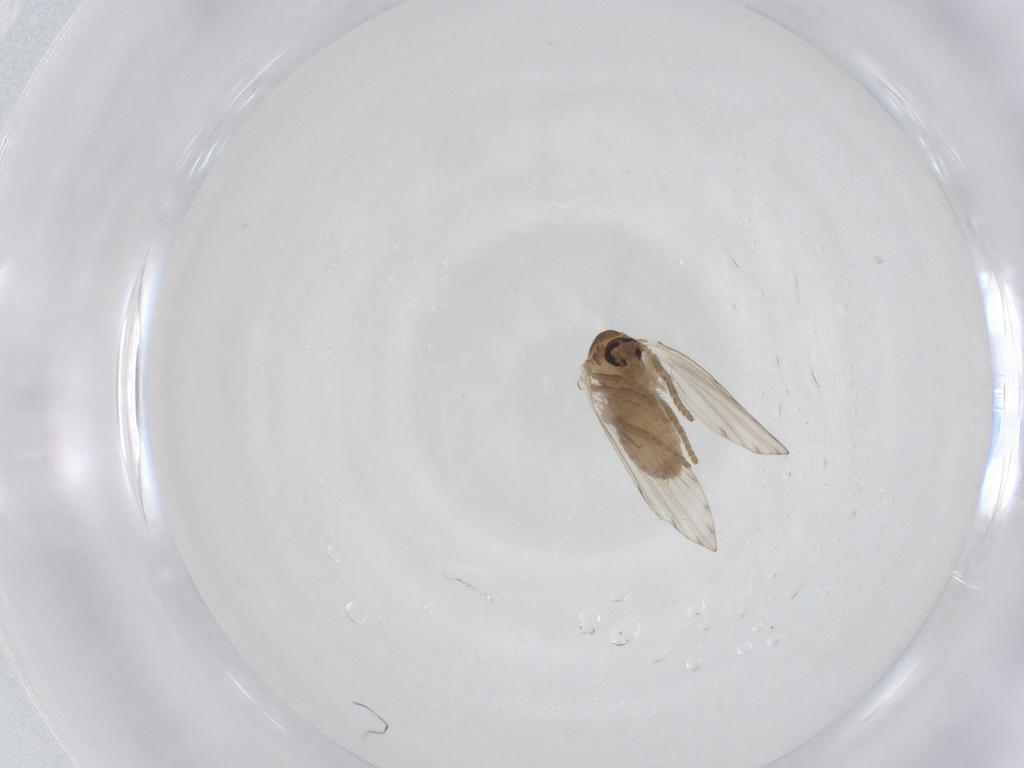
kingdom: Animalia
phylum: Arthropoda
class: Insecta
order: Diptera
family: Psychodidae
